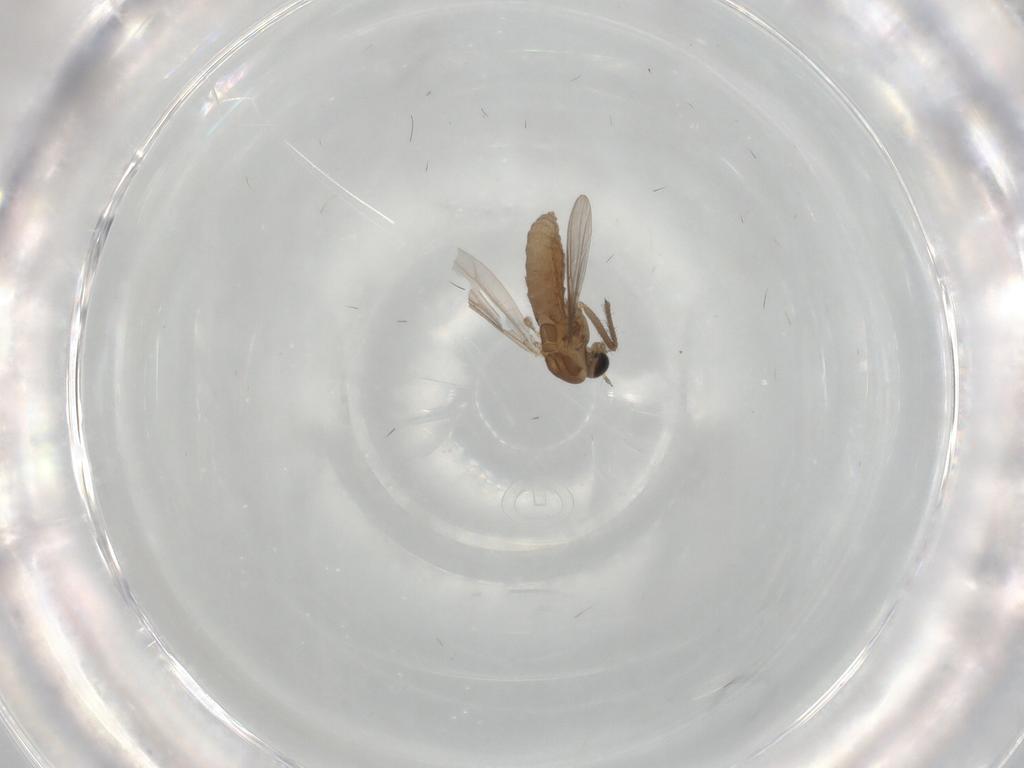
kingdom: Animalia
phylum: Arthropoda
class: Insecta
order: Diptera
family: Chironomidae
